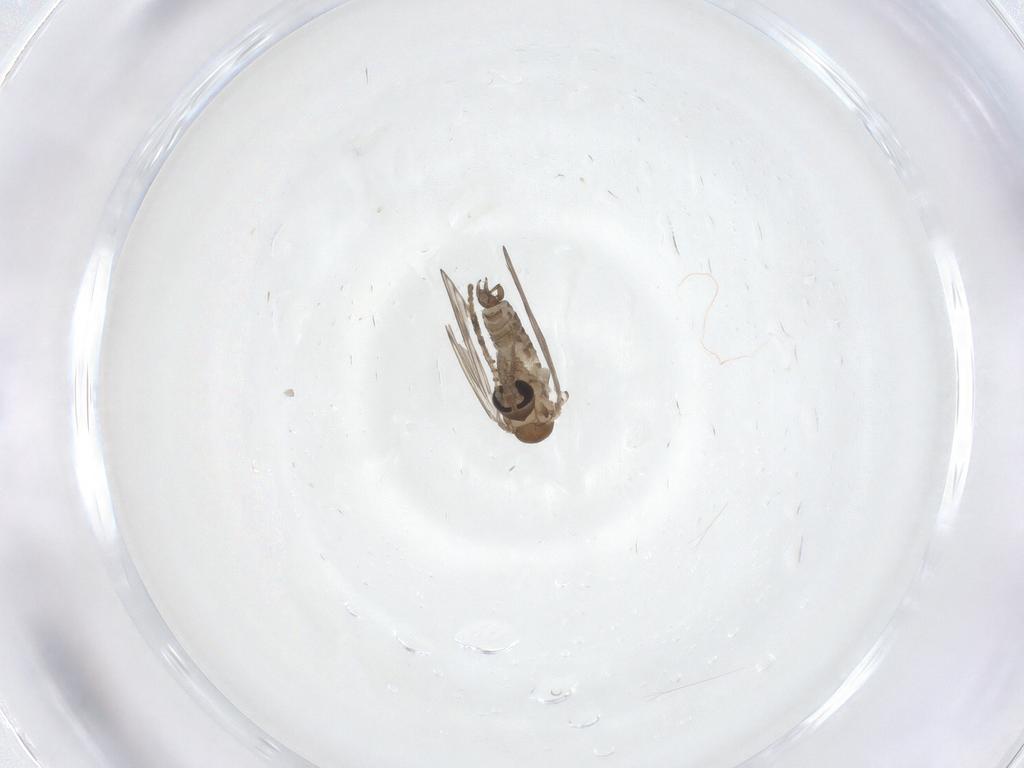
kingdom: Animalia
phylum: Arthropoda
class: Insecta
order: Diptera
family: Psychodidae
